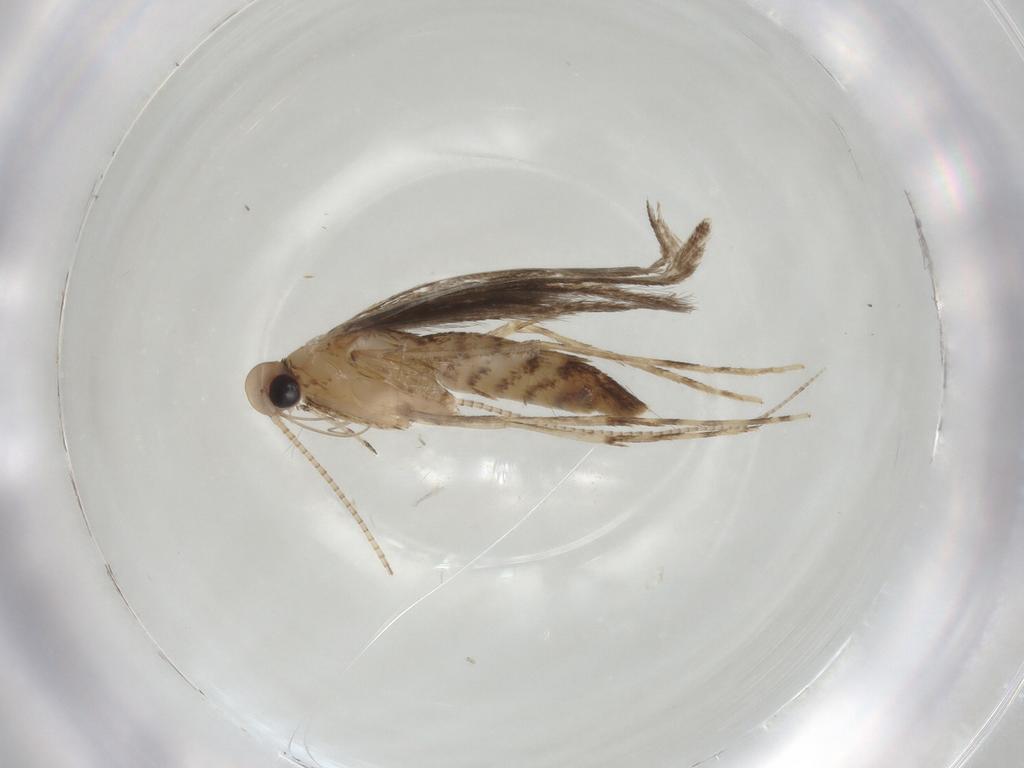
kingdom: Animalia
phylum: Arthropoda
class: Insecta
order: Lepidoptera
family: Gracillariidae
